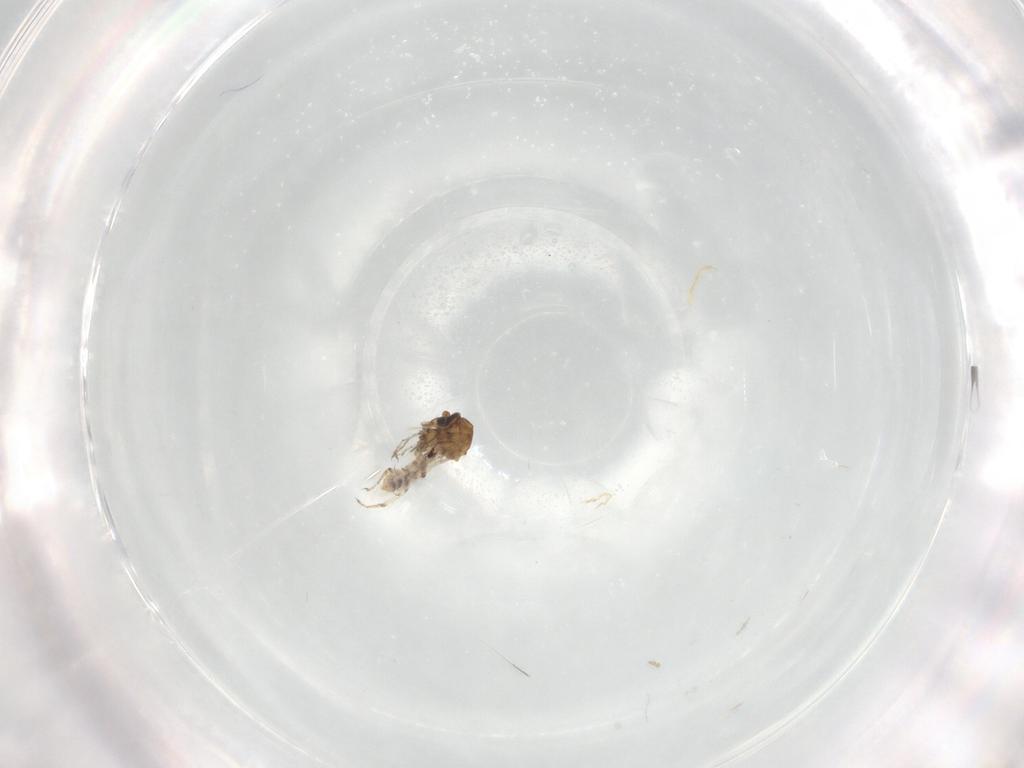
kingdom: Animalia
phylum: Arthropoda
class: Insecta
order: Diptera
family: Ceratopogonidae
